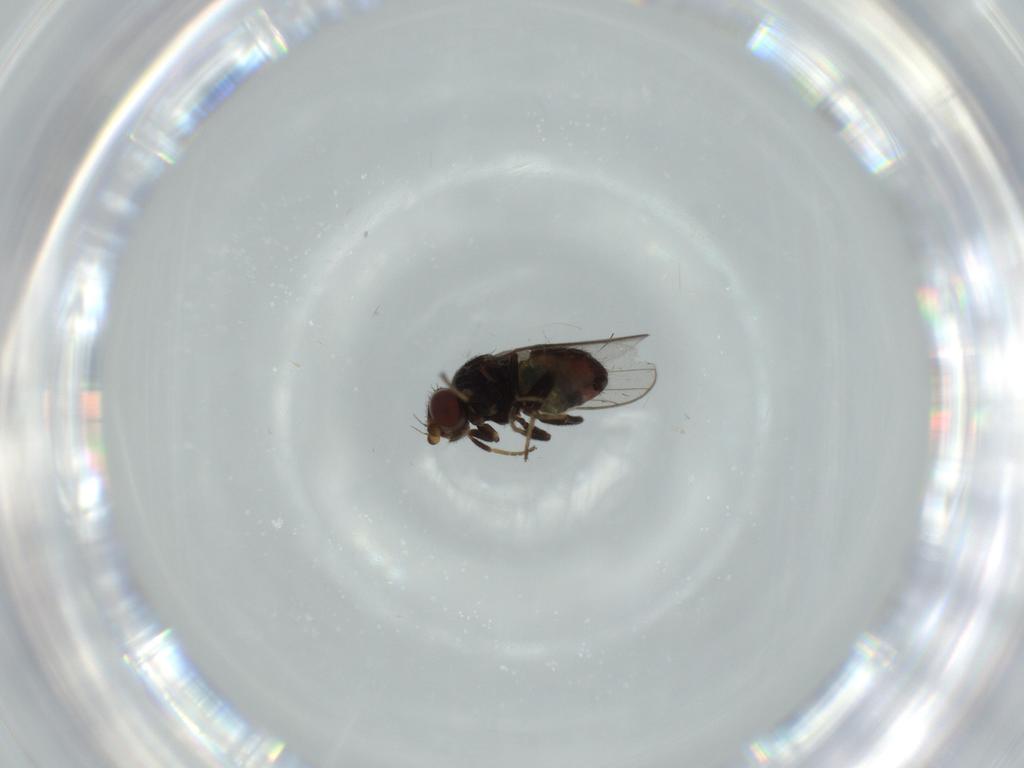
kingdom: Animalia
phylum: Arthropoda
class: Insecta
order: Diptera
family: Chloropidae
